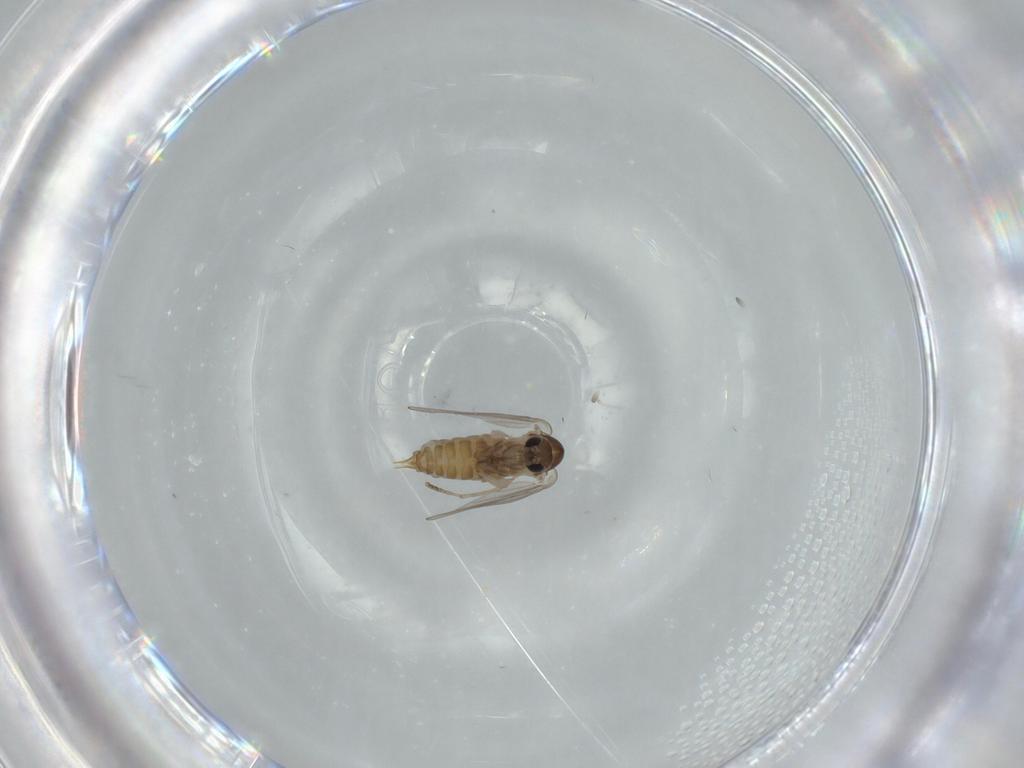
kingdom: Animalia
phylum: Arthropoda
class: Insecta
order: Diptera
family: Psychodidae
